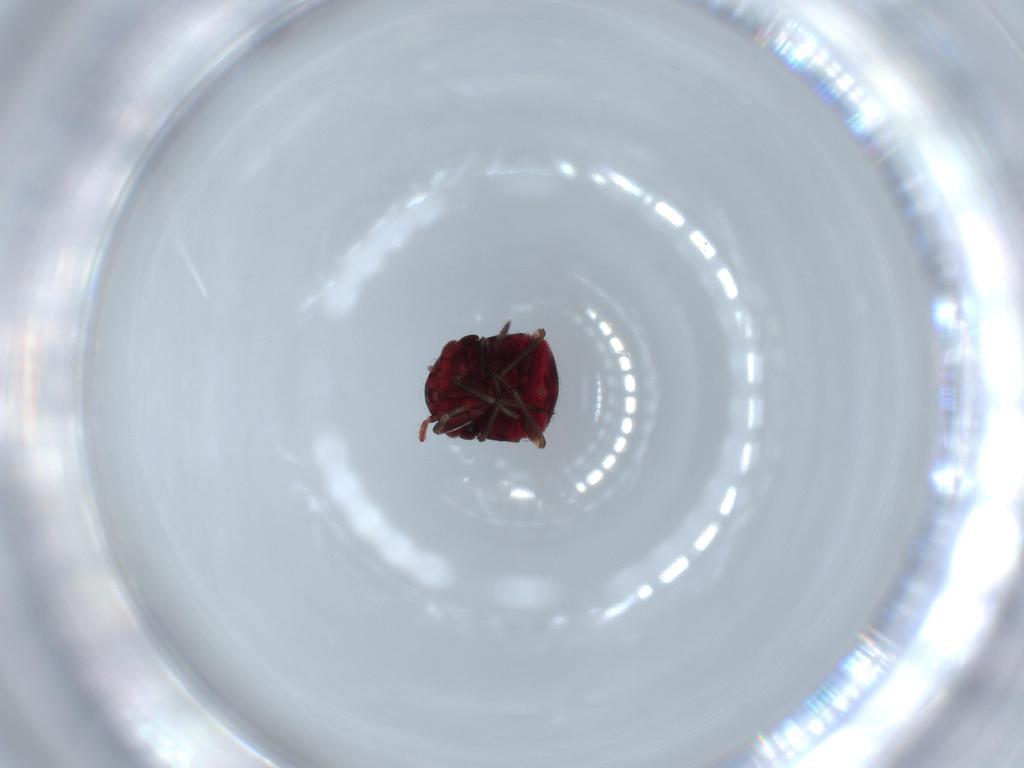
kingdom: Animalia
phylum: Arthropoda
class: Insecta
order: Hemiptera
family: Miridae
